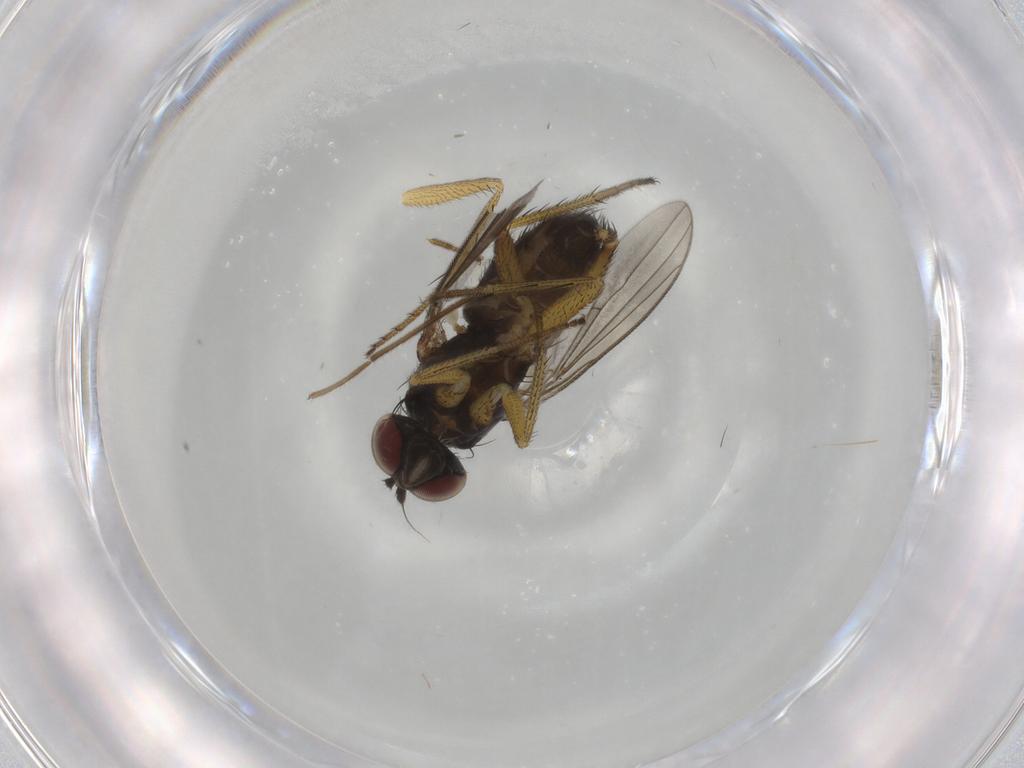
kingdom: Animalia
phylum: Arthropoda
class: Insecta
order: Diptera
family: Dolichopodidae
